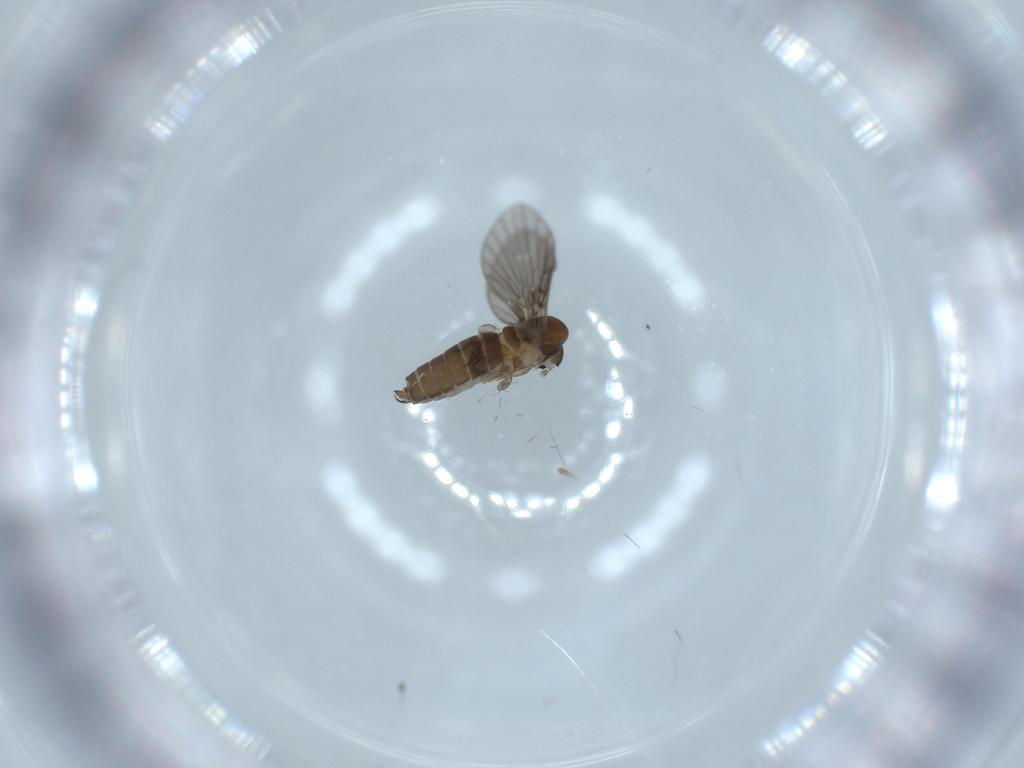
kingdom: Animalia
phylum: Arthropoda
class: Insecta
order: Diptera
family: Psychodidae
